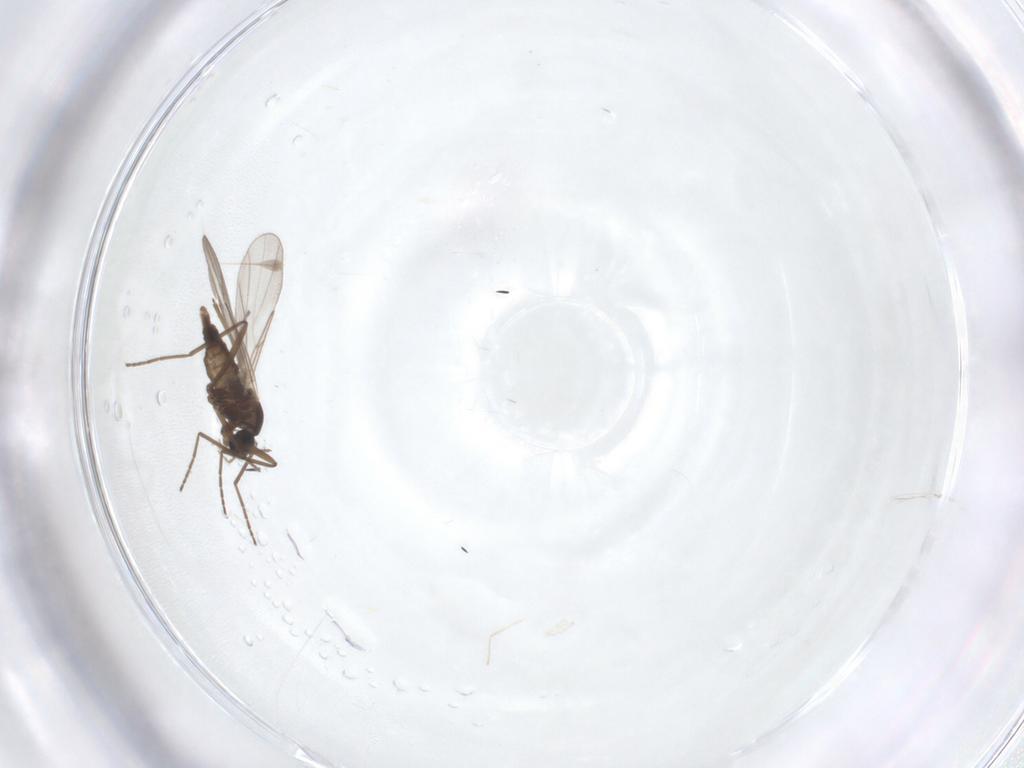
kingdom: Animalia
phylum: Arthropoda
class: Insecta
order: Diptera
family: Cecidomyiidae
